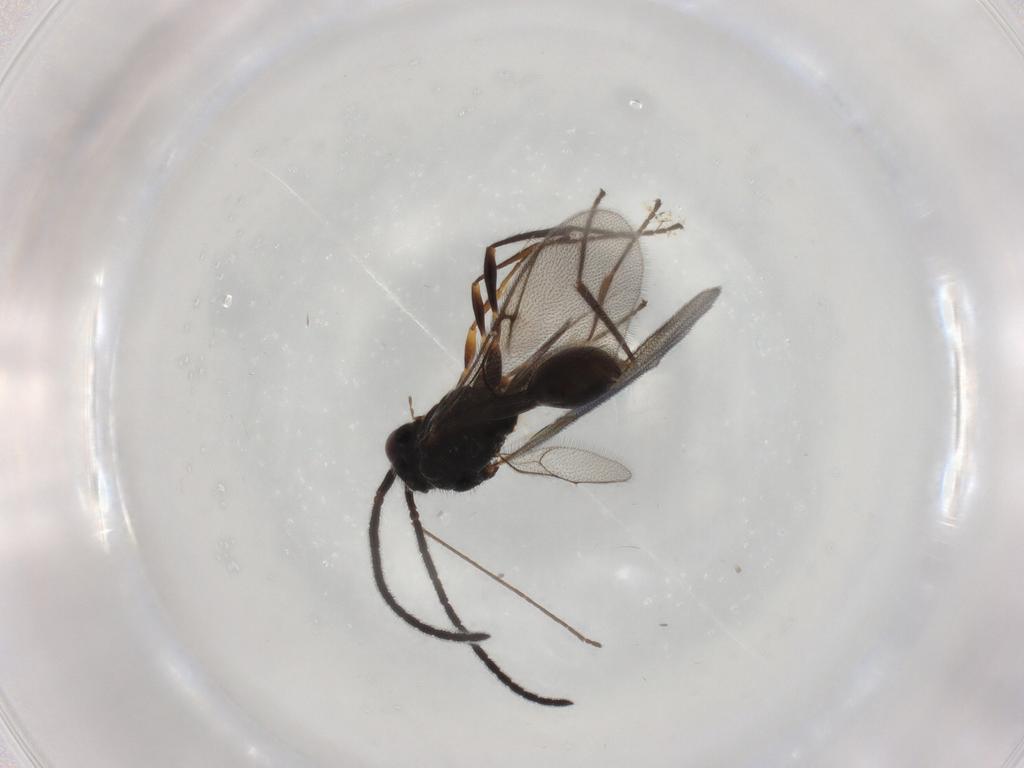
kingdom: Animalia
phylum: Arthropoda
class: Insecta
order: Hymenoptera
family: Diapriidae
